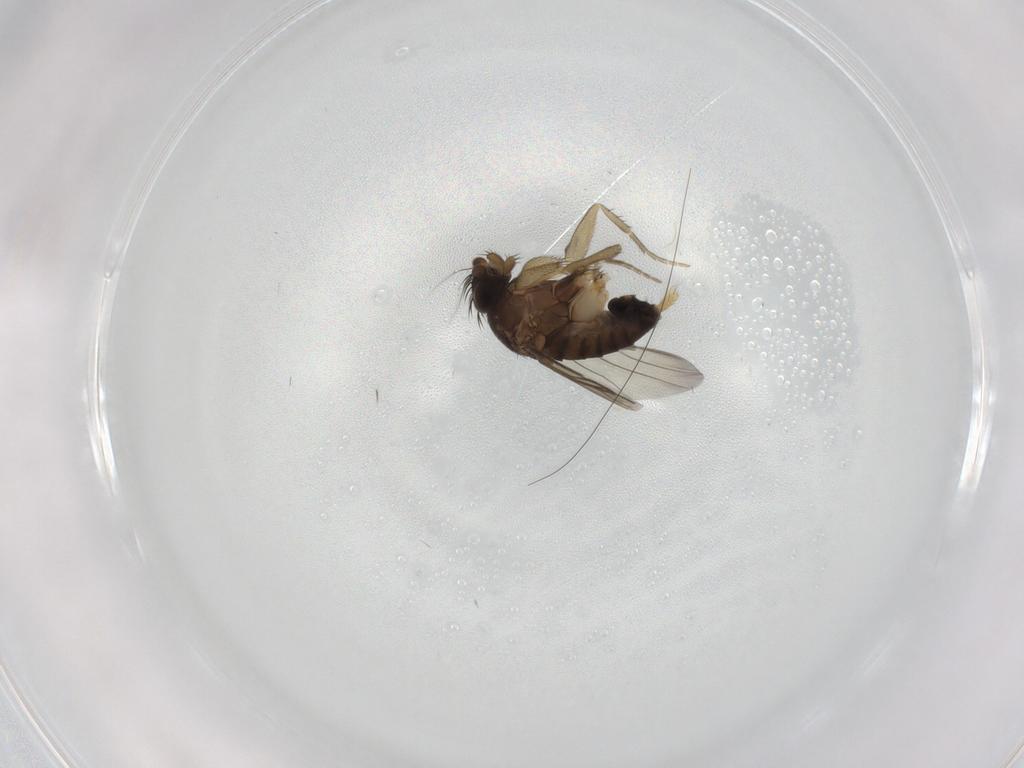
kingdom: Animalia
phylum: Arthropoda
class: Insecta
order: Diptera
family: Phoridae
